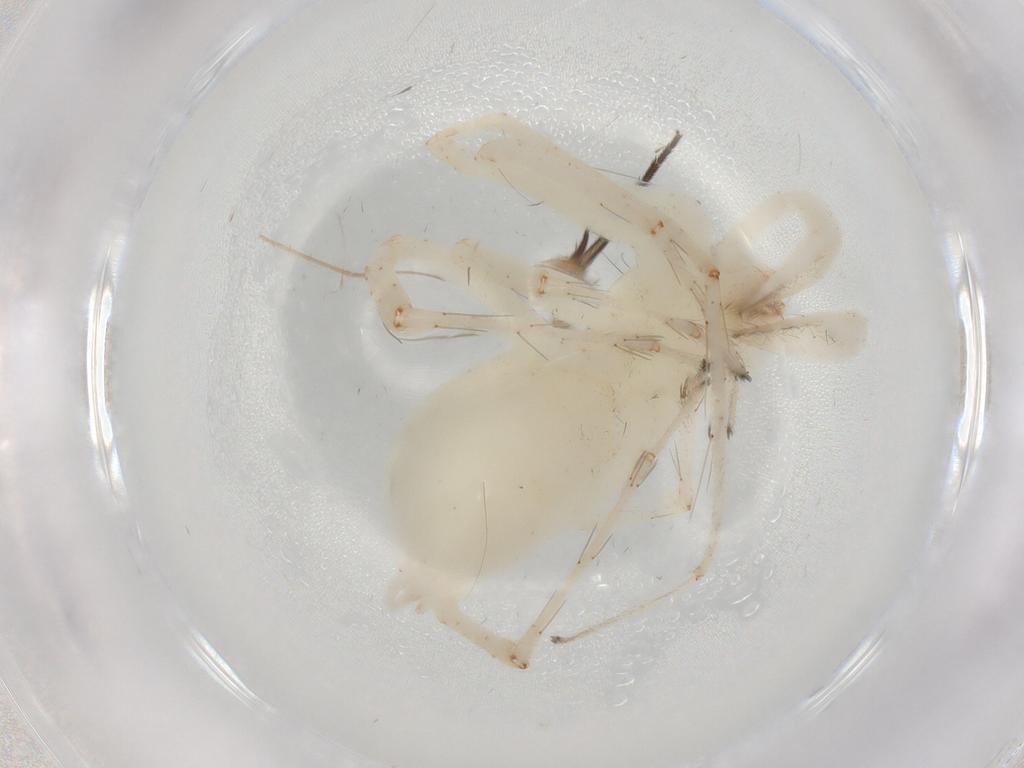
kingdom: Animalia
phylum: Arthropoda
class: Arachnida
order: Araneae
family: Anyphaenidae
